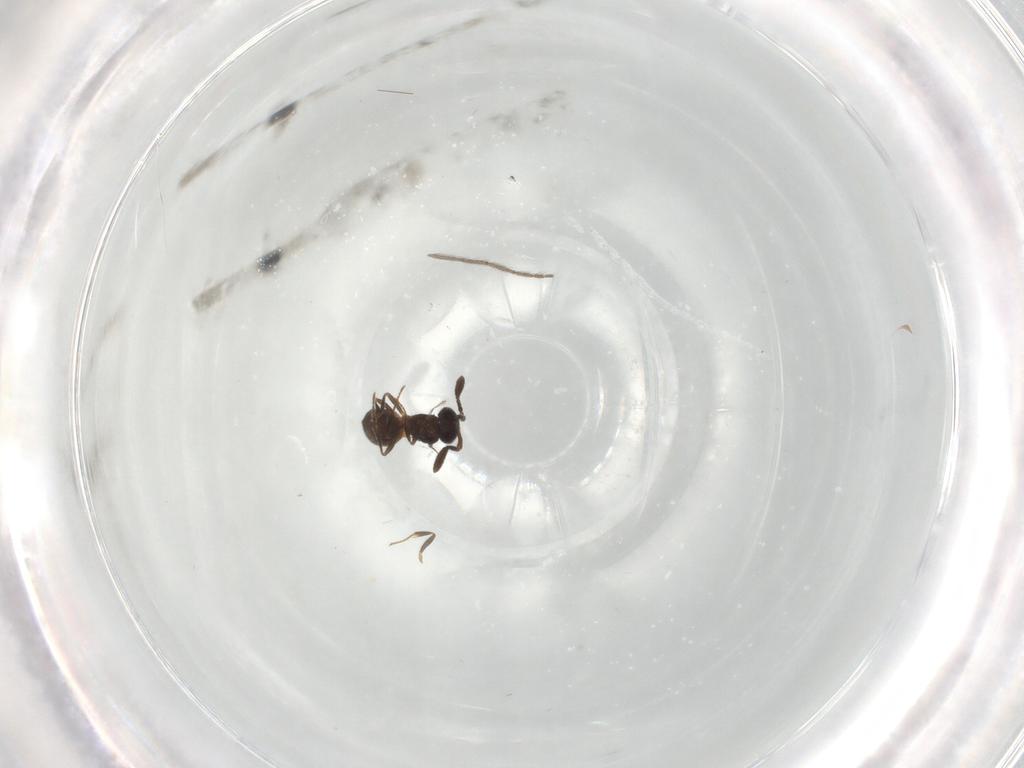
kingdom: Animalia
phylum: Arthropoda
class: Insecta
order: Hymenoptera
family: Scelionidae
